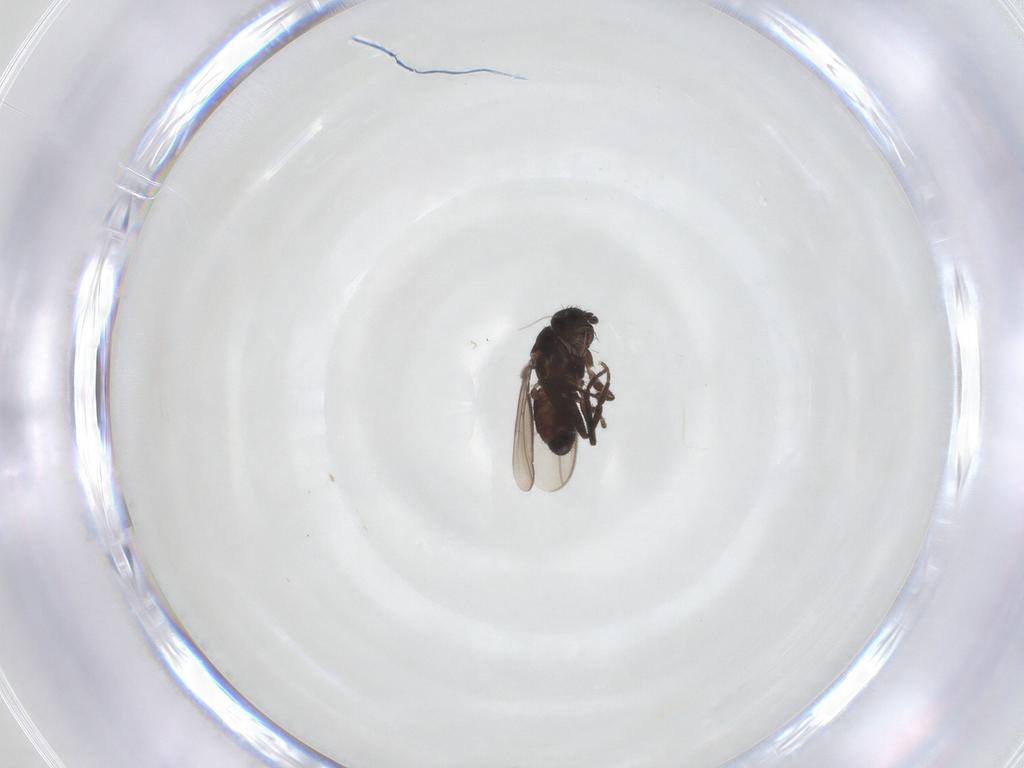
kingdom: Animalia
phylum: Arthropoda
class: Insecta
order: Diptera
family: Sphaeroceridae
